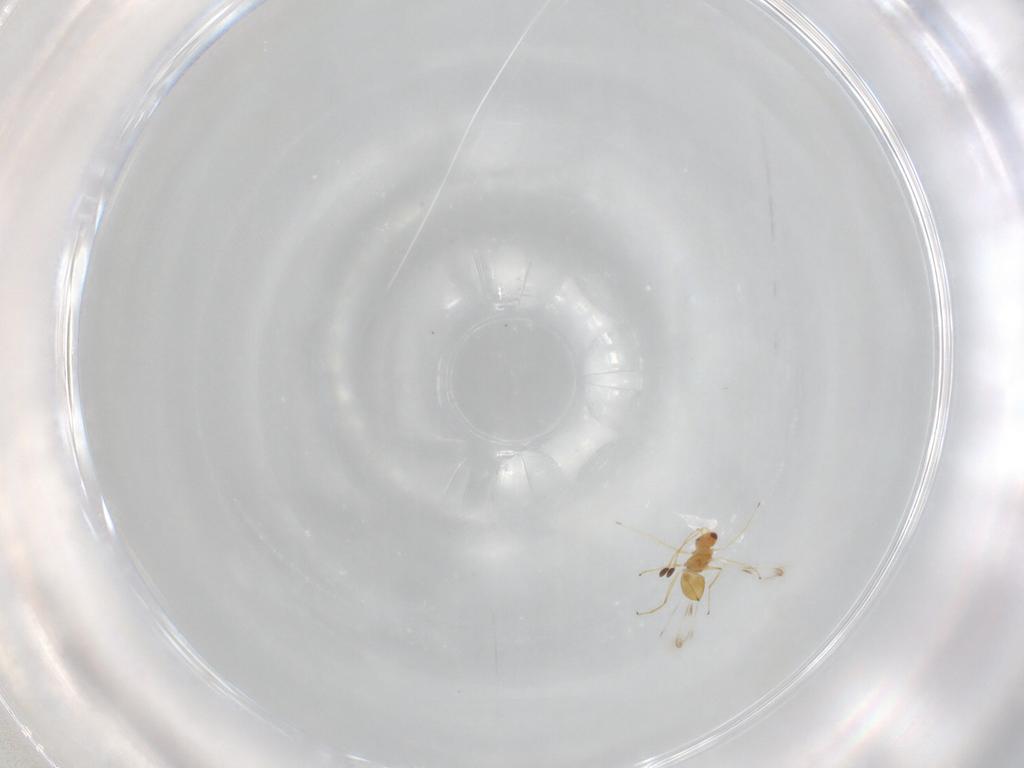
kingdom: Animalia
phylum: Arthropoda
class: Insecta
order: Hymenoptera
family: Mymaridae
